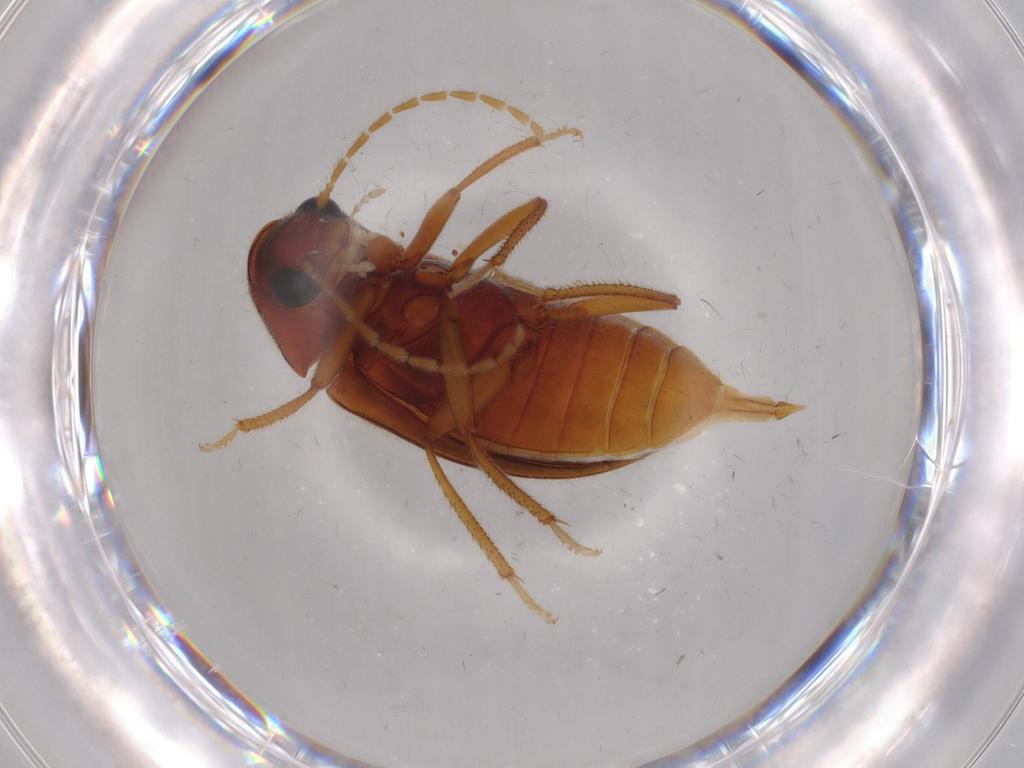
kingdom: Animalia
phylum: Arthropoda
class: Insecta
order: Coleoptera
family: Ptilodactylidae
